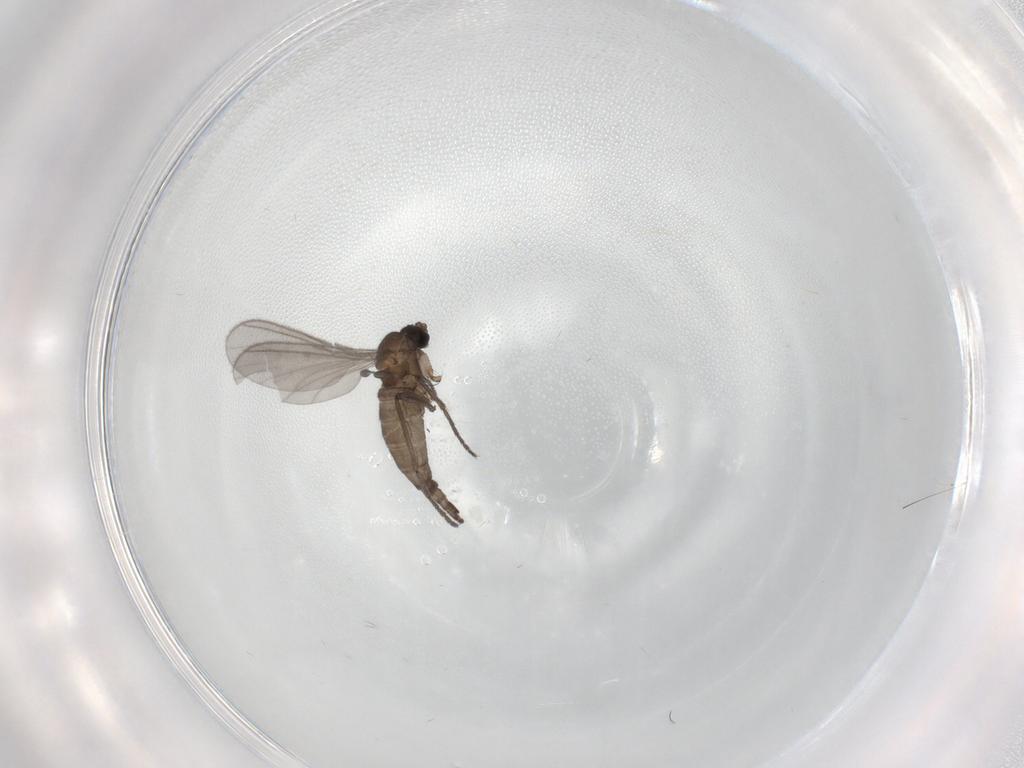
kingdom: Animalia
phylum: Arthropoda
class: Insecta
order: Diptera
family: Sciaridae
